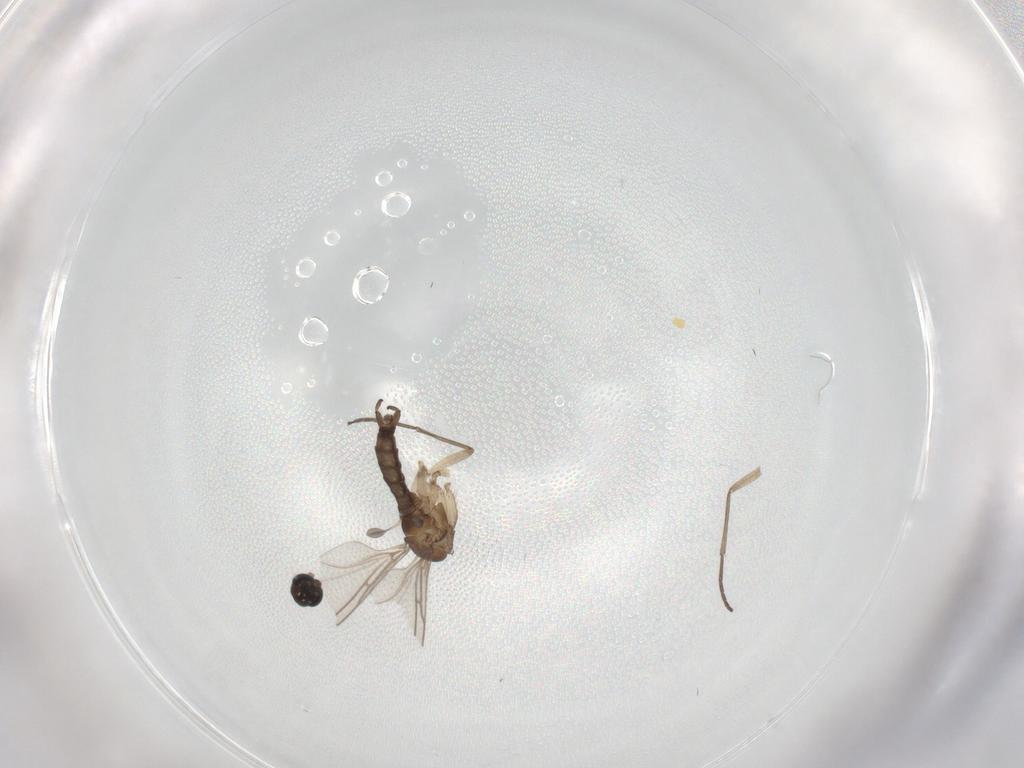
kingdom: Animalia
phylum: Arthropoda
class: Insecta
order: Diptera
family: Sciaridae
